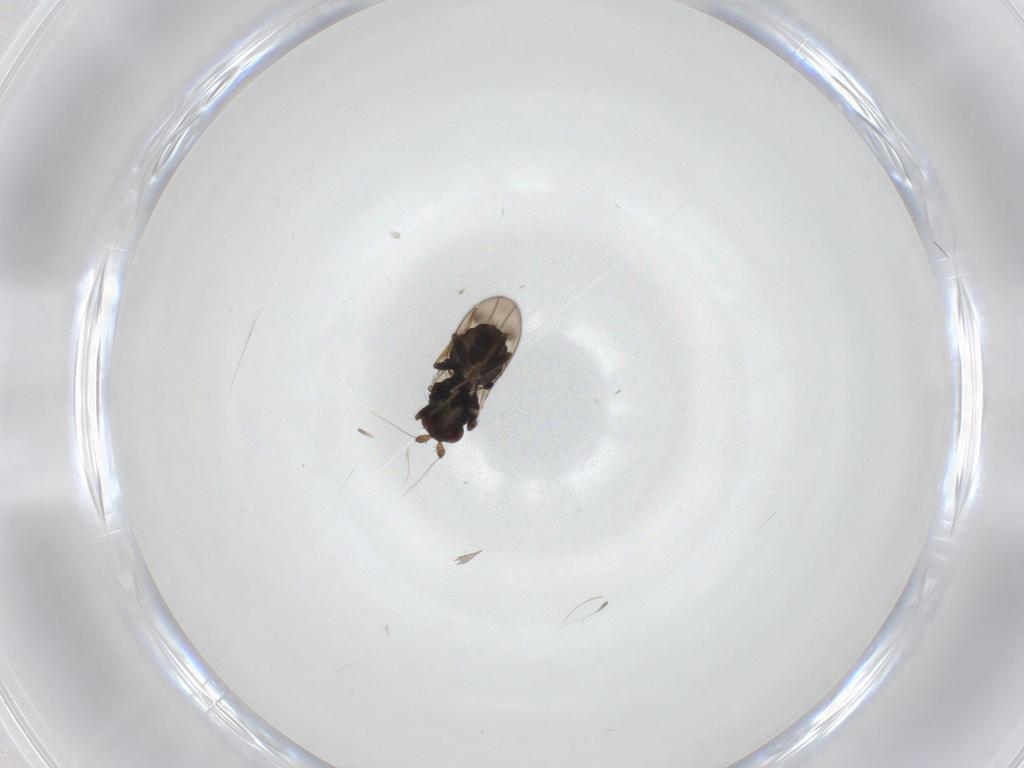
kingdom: Animalia
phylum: Arthropoda
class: Insecta
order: Diptera
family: Sphaeroceridae
